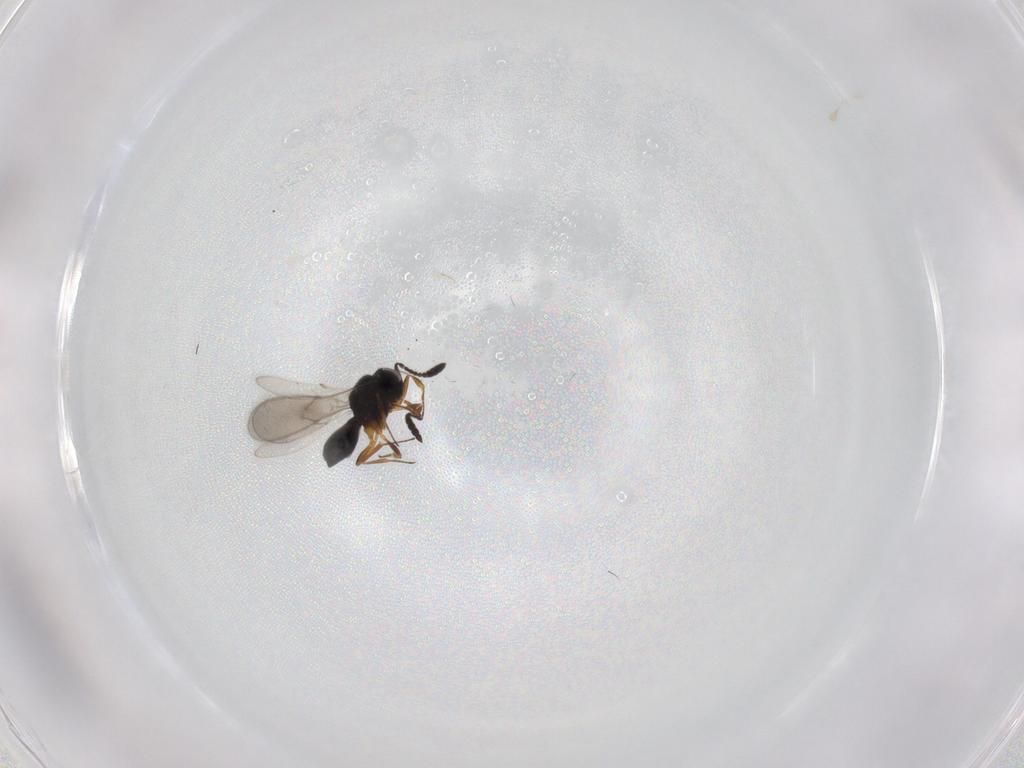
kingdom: Animalia
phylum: Arthropoda
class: Insecta
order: Hymenoptera
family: Scelionidae
